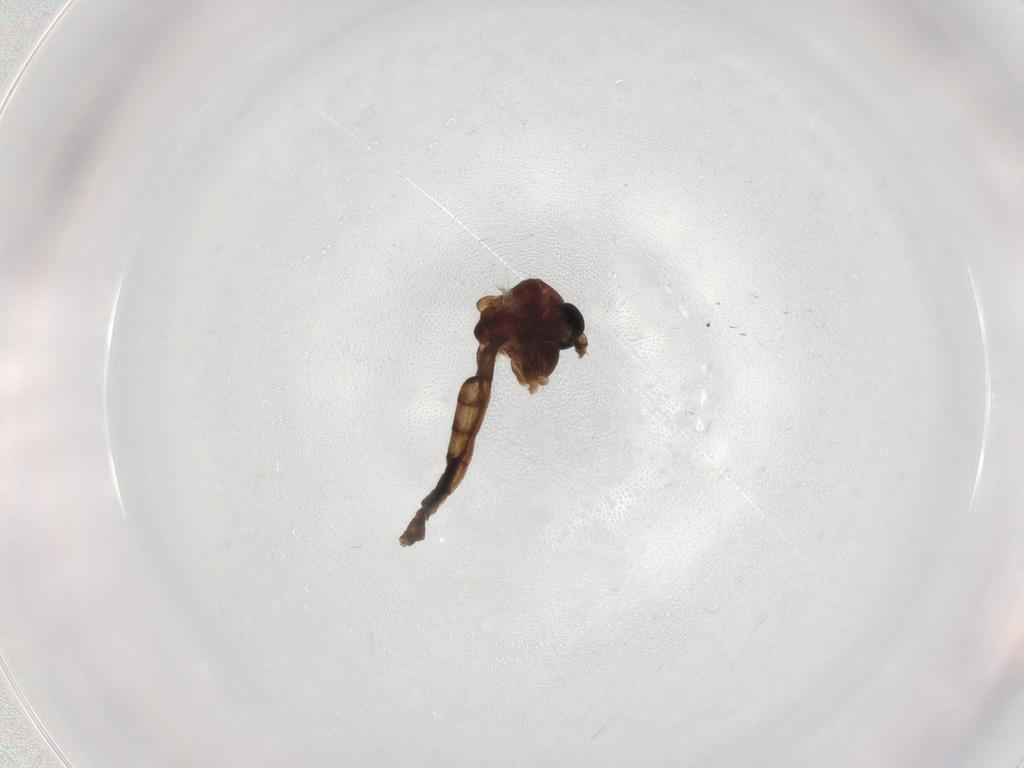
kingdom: Animalia
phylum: Arthropoda
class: Insecta
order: Diptera
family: Chironomidae
